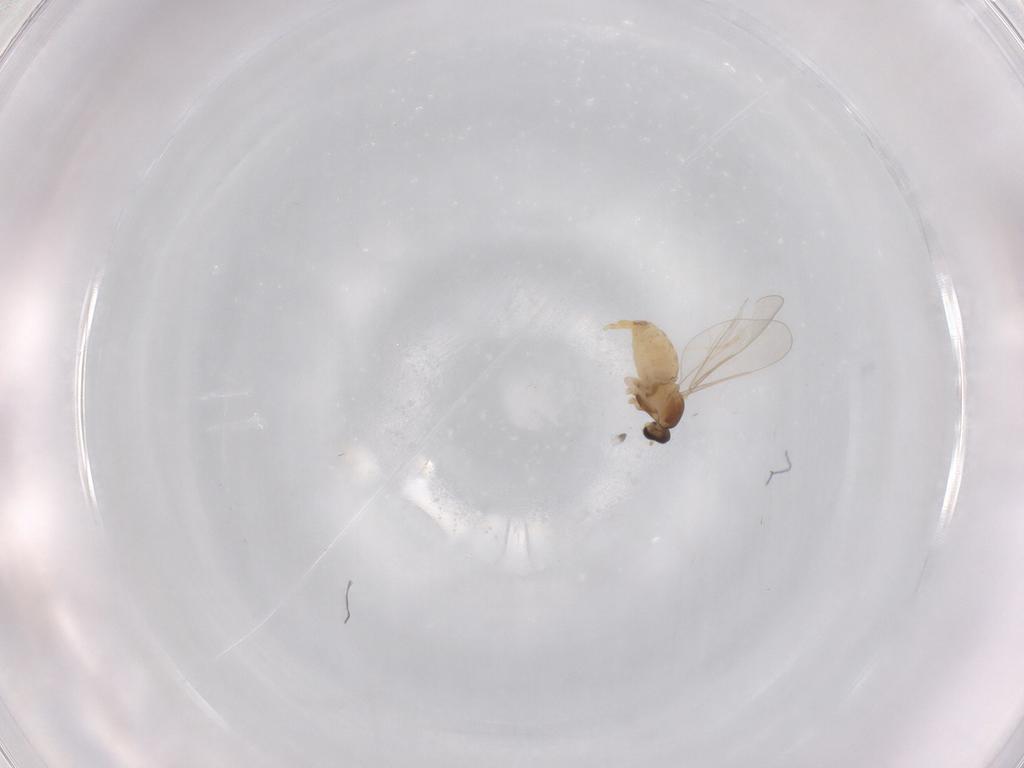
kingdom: Animalia
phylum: Arthropoda
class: Insecta
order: Diptera
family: Cecidomyiidae
